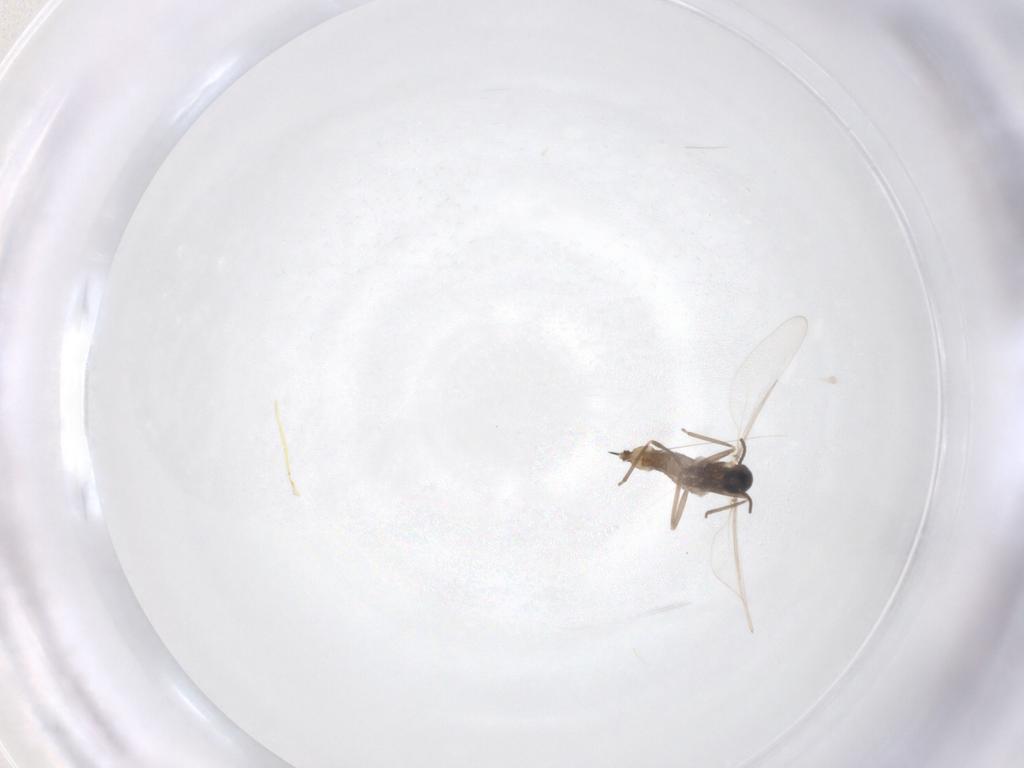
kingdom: Animalia
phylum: Arthropoda
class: Insecta
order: Diptera
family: Cecidomyiidae
